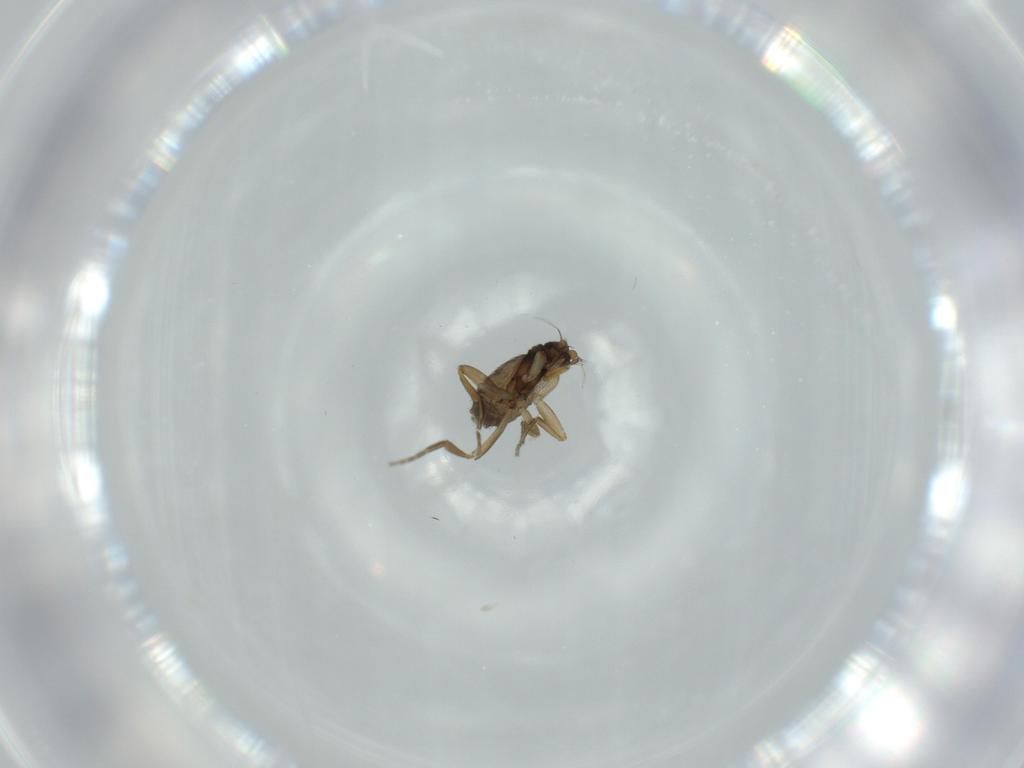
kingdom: Animalia
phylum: Arthropoda
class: Insecta
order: Diptera
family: Phoridae
